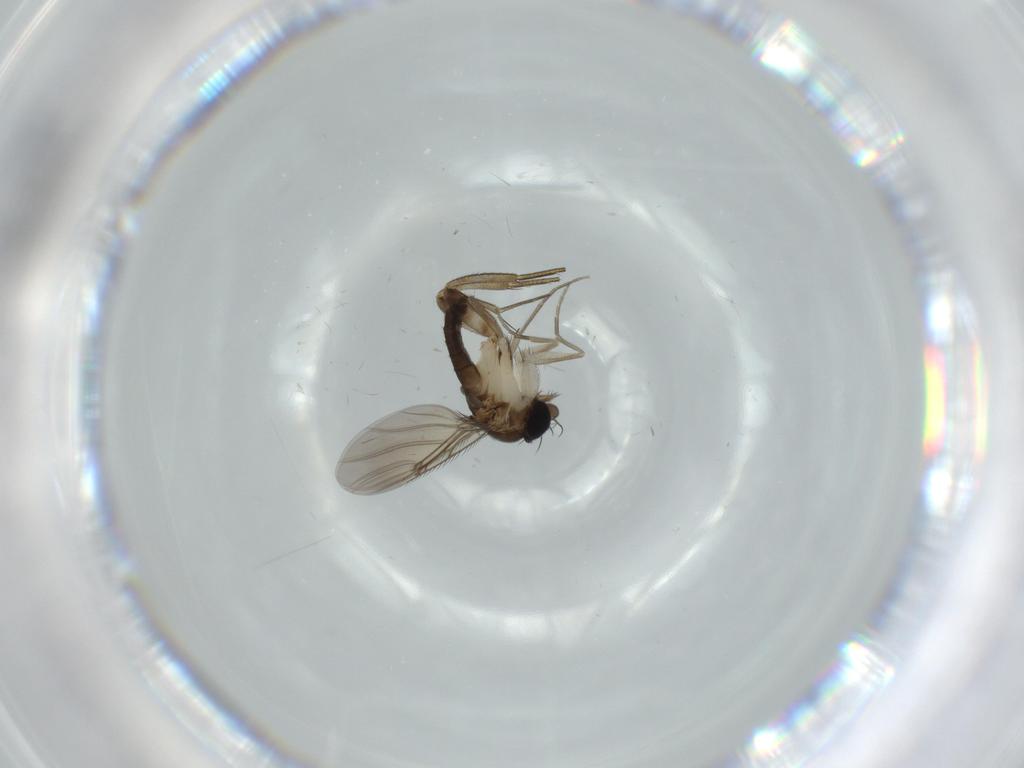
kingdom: Animalia
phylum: Arthropoda
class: Insecta
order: Diptera
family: Phoridae
